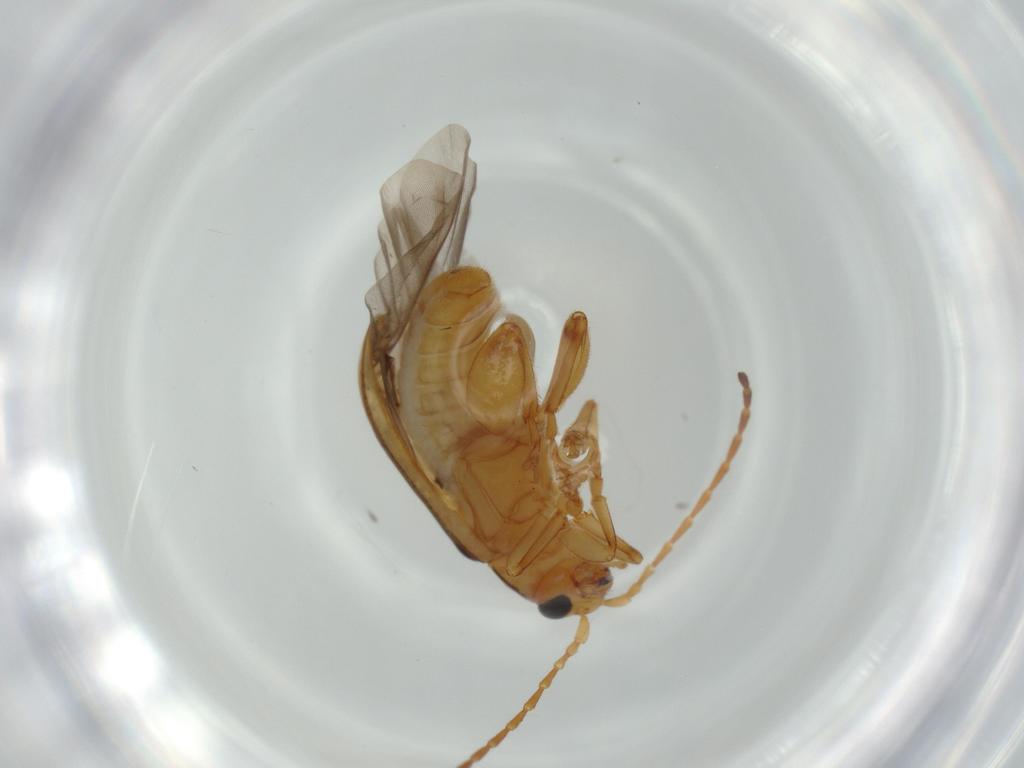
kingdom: Animalia
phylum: Arthropoda
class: Insecta
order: Coleoptera
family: Chrysomelidae
